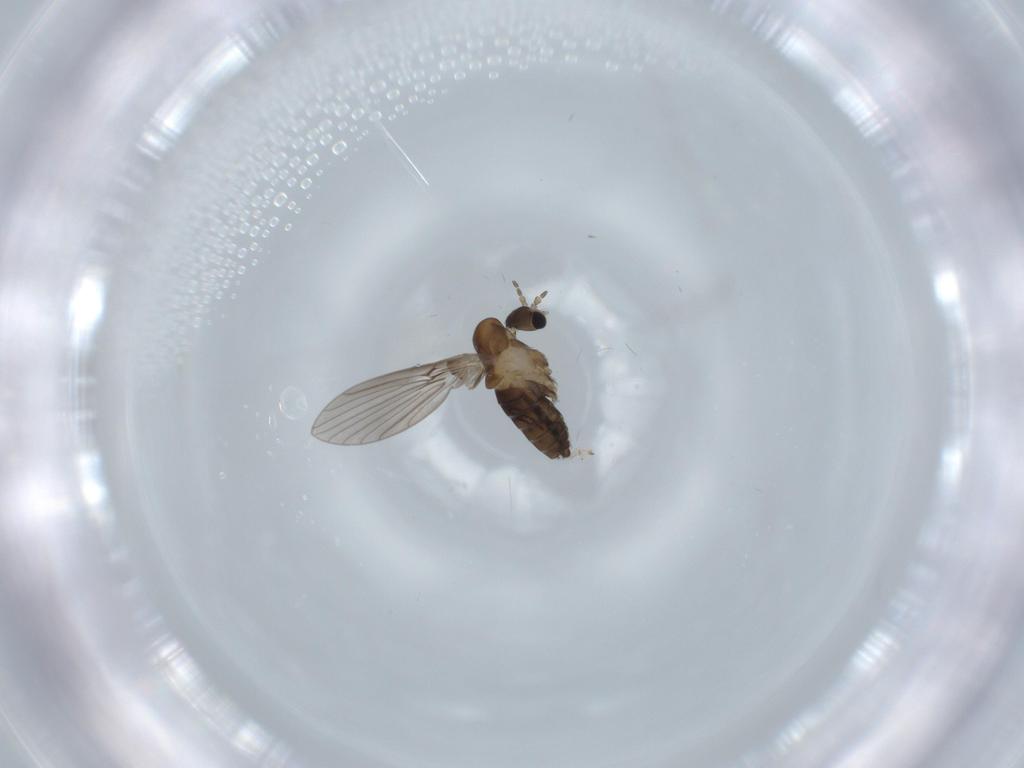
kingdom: Animalia
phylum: Arthropoda
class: Insecta
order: Diptera
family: Psychodidae
